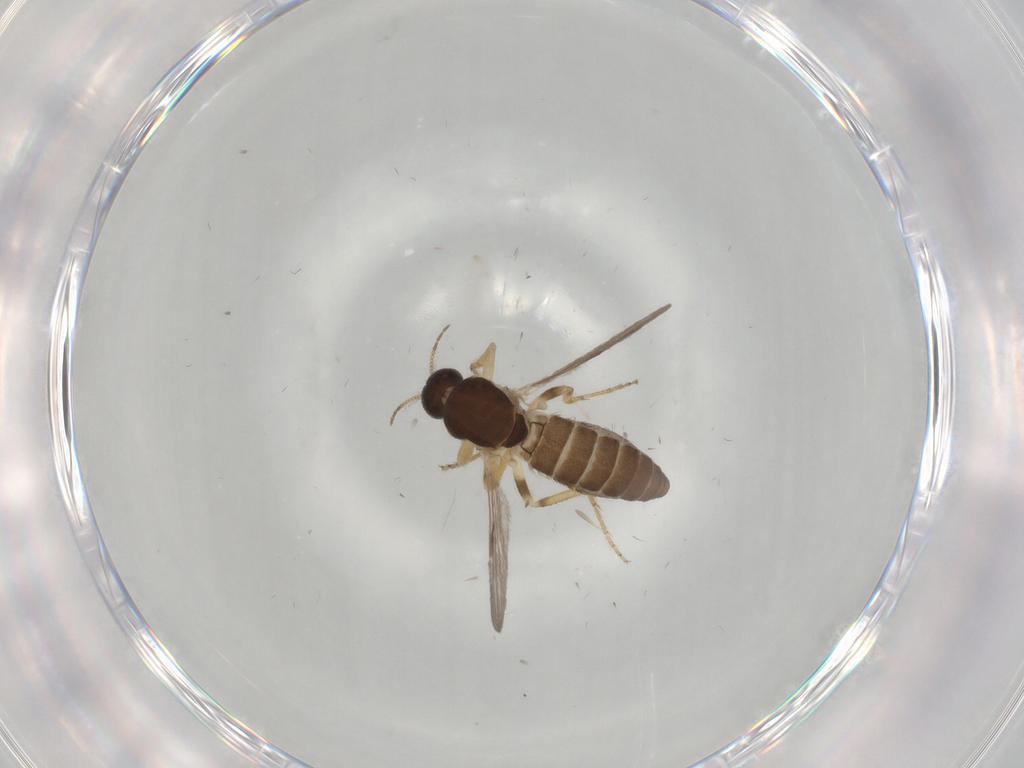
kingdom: Animalia
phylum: Arthropoda
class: Insecta
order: Diptera
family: Ceratopogonidae
